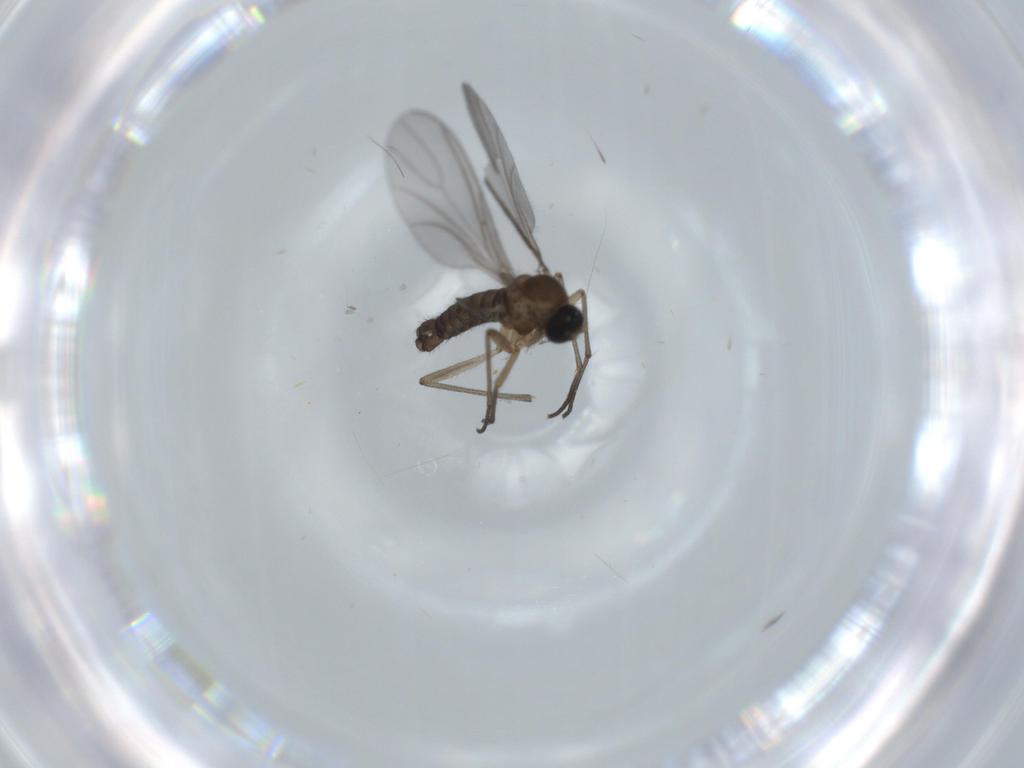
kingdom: Animalia
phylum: Arthropoda
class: Insecta
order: Diptera
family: Sciaridae
